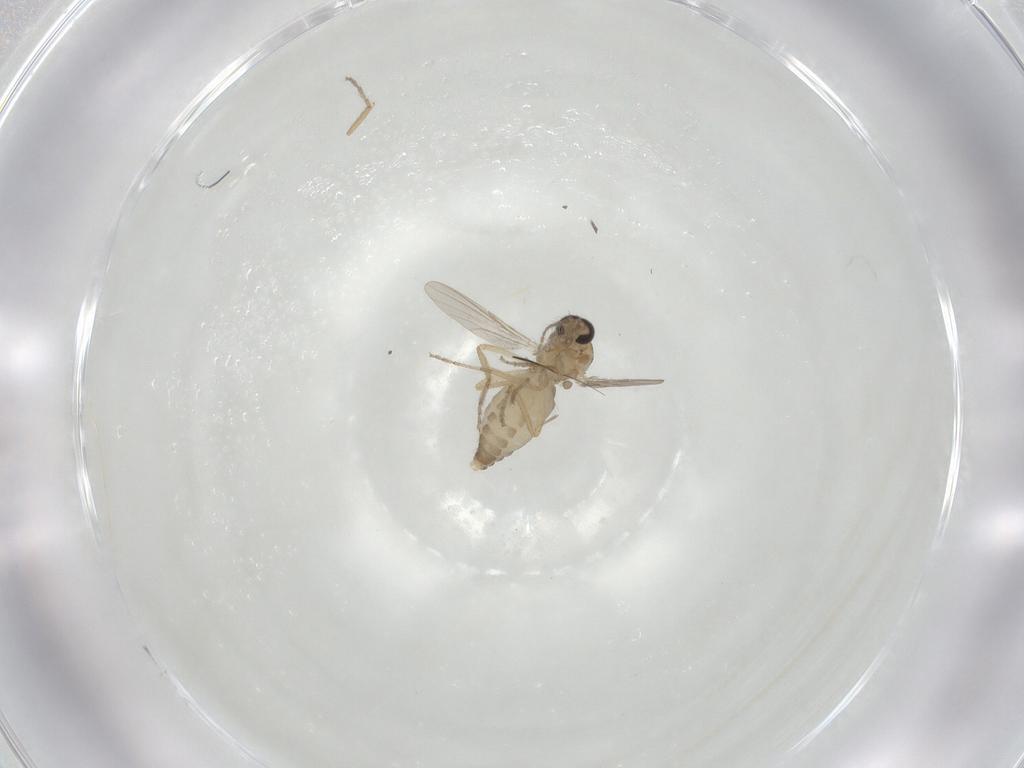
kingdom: Animalia
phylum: Arthropoda
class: Insecta
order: Diptera
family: Ceratopogonidae
